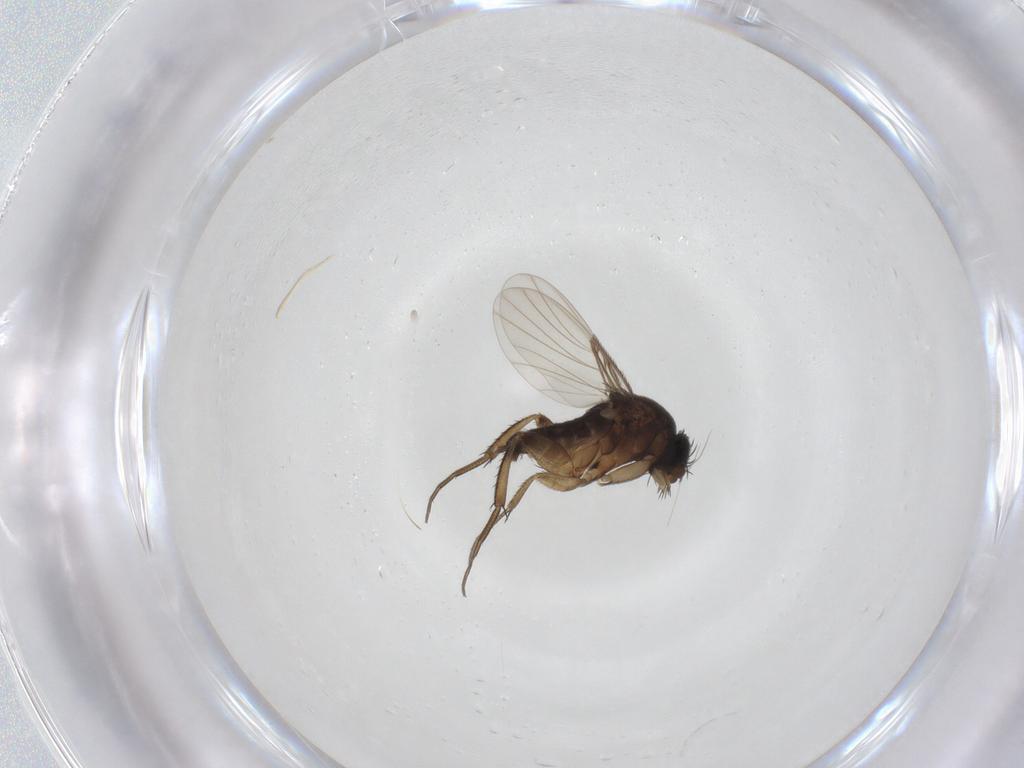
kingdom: Animalia
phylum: Arthropoda
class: Insecta
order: Diptera
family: Phoridae
